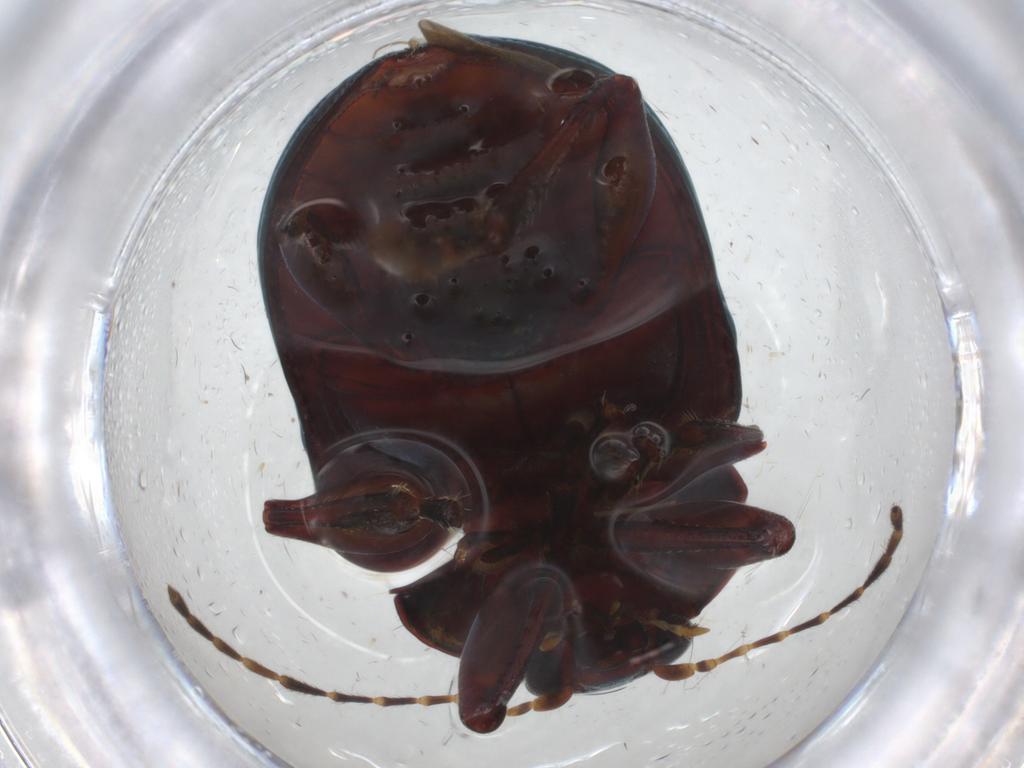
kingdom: Animalia
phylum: Arthropoda
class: Insecta
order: Coleoptera
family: Chrysomelidae
